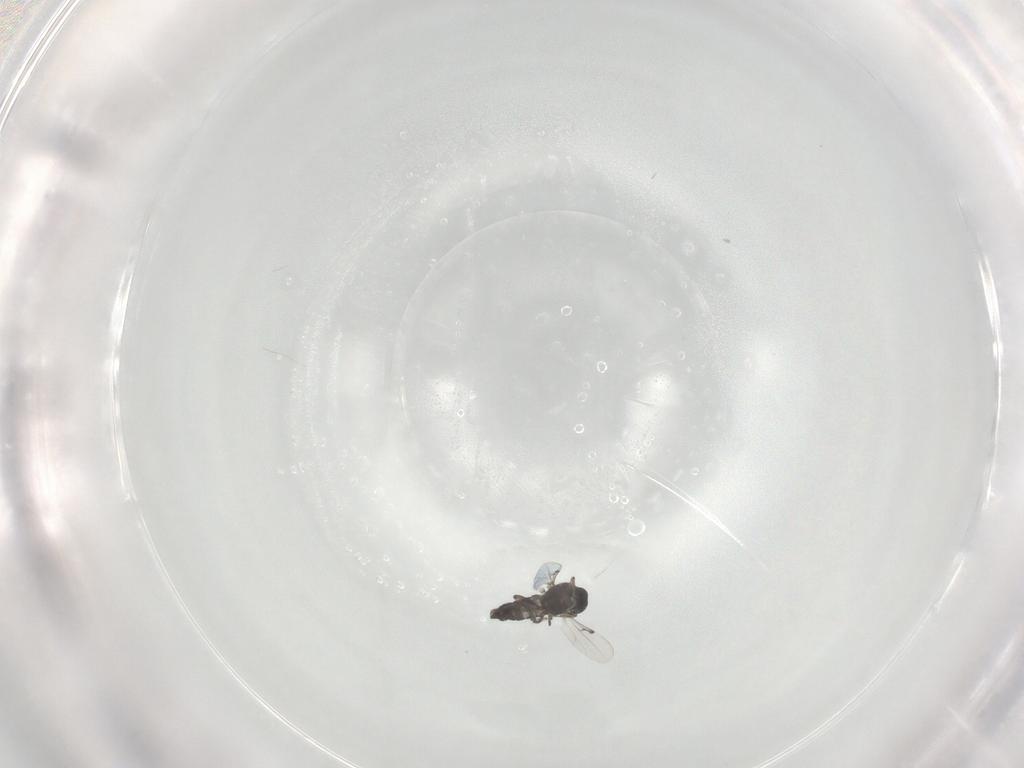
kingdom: Animalia
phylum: Arthropoda
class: Insecta
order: Diptera
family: Ceratopogonidae
